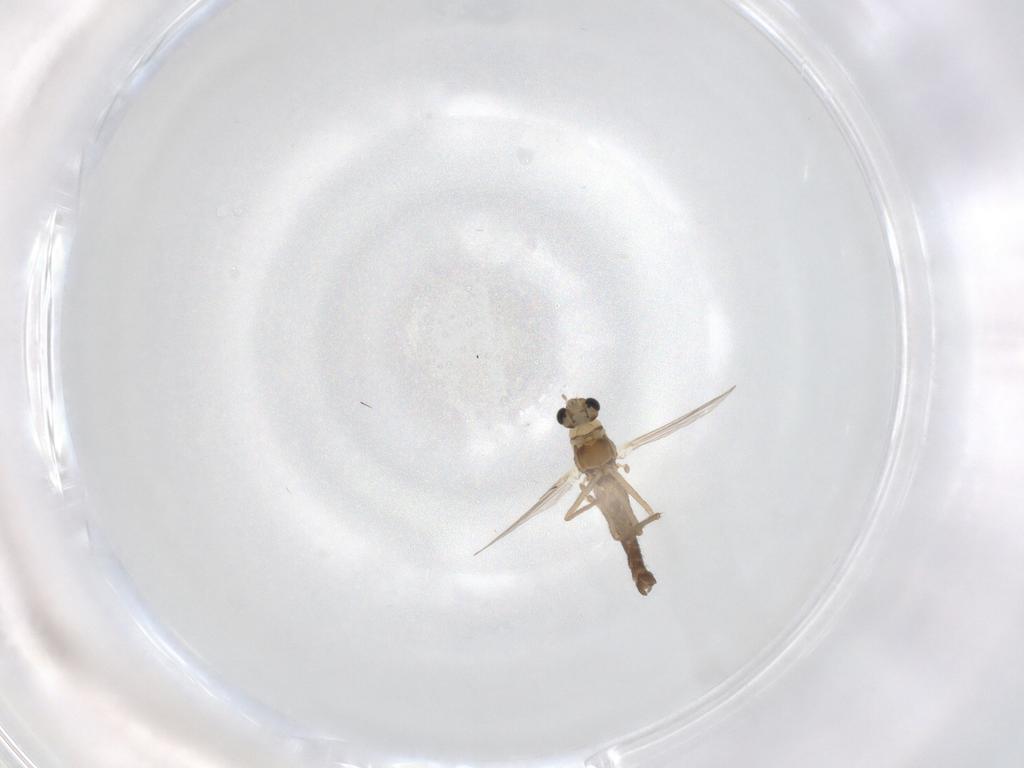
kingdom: Animalia
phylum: Arthropoda
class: Insecta
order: Diptera
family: Chironomidae
